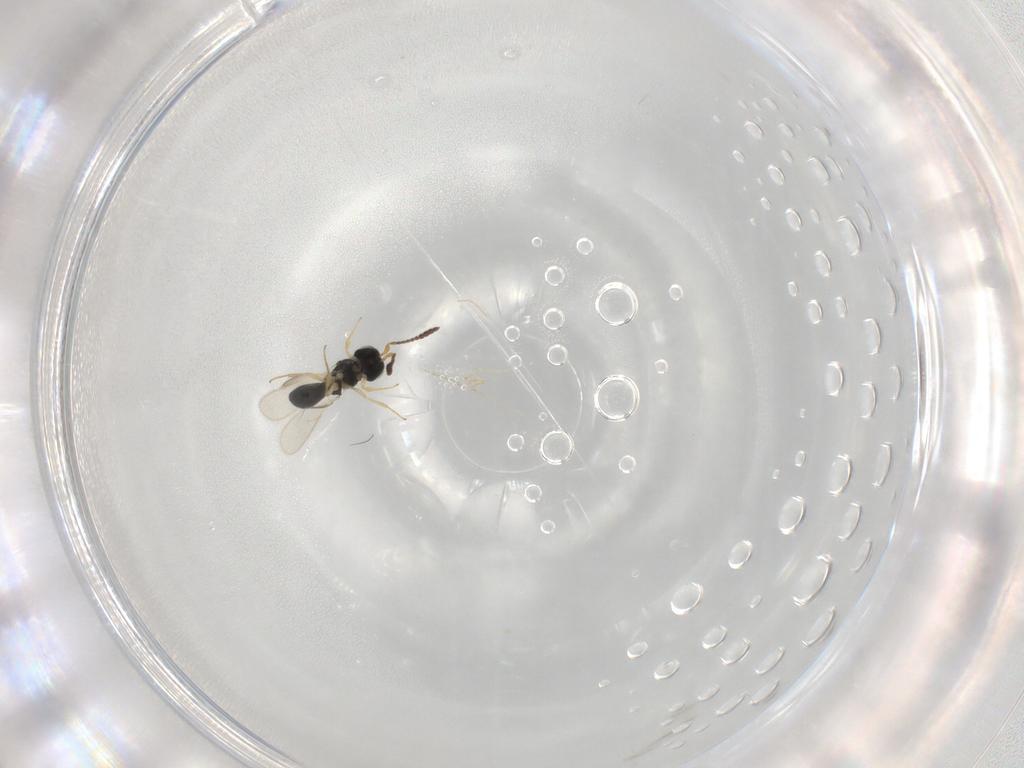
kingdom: Animalia
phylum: Arthropoda
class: Insecta
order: Hymenoptera
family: Scelionidae
